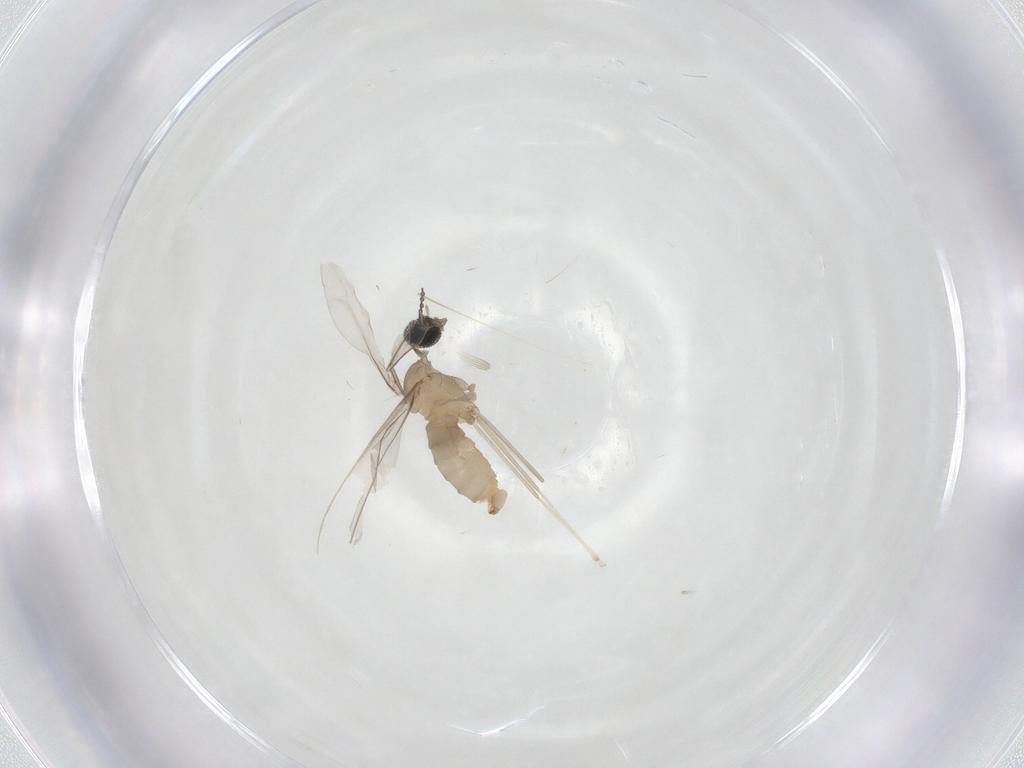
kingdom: Animalia
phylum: Arthropoda
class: Insecta
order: Diptera
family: Cecidomyiidae
